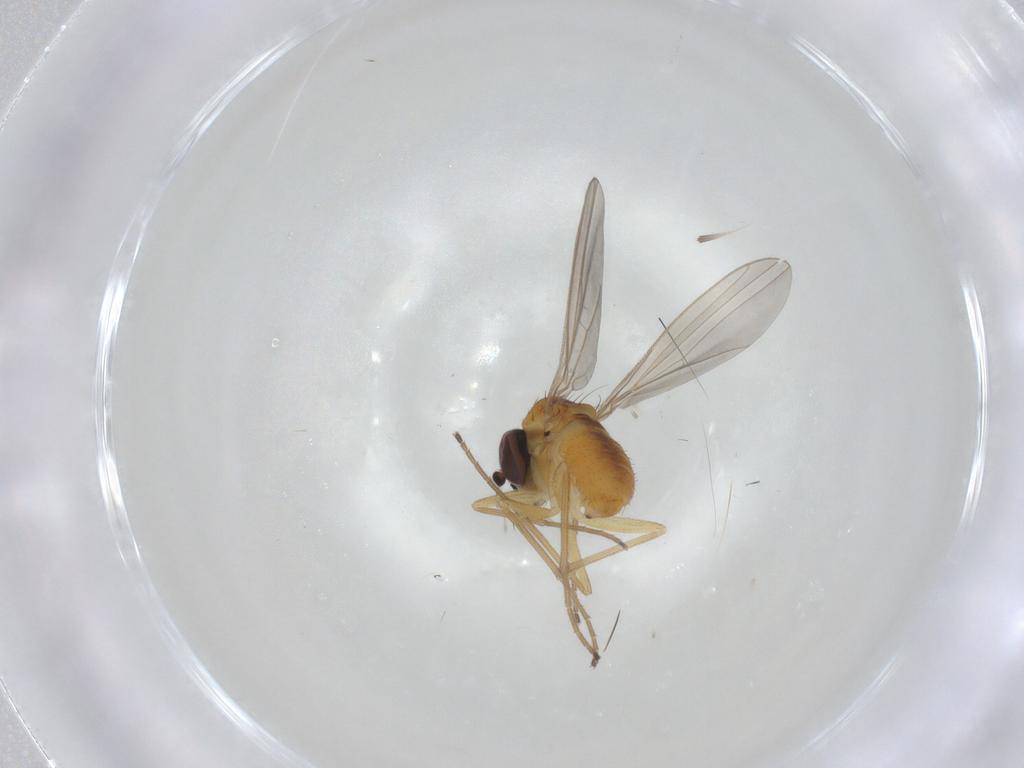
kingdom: Animalia
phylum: Arthropoda
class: Insecta
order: Diptera
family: Dolichopodidae
